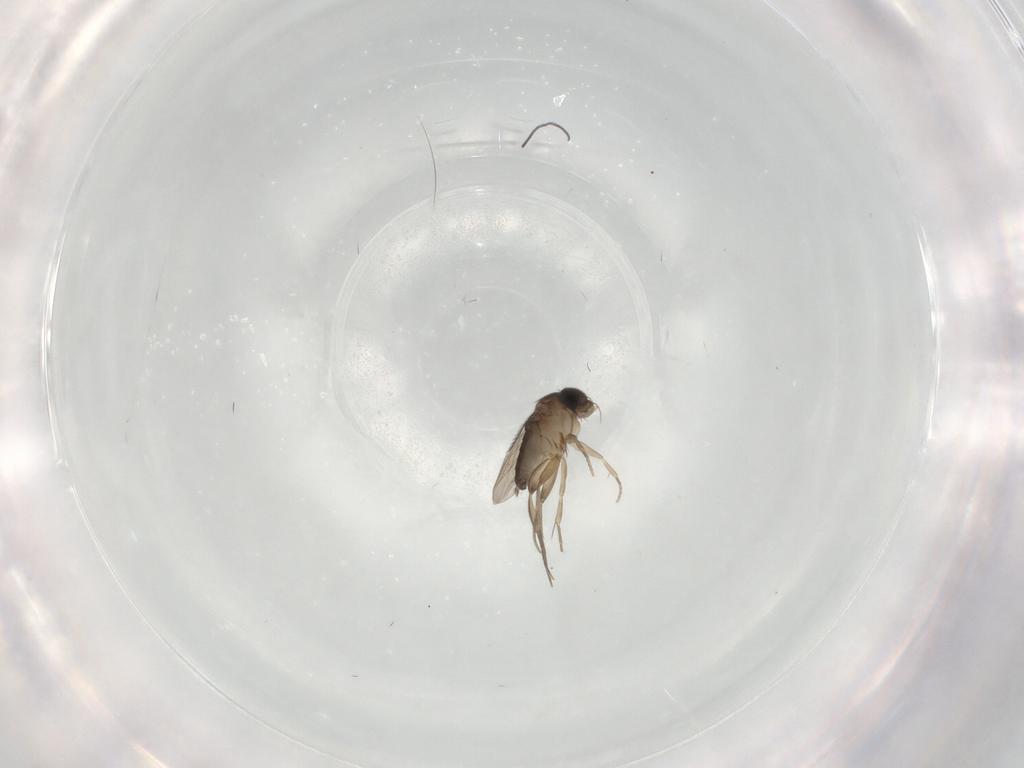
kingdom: Animalia
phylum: Arthropoda
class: Insecta
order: Diptera
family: Phoridae
